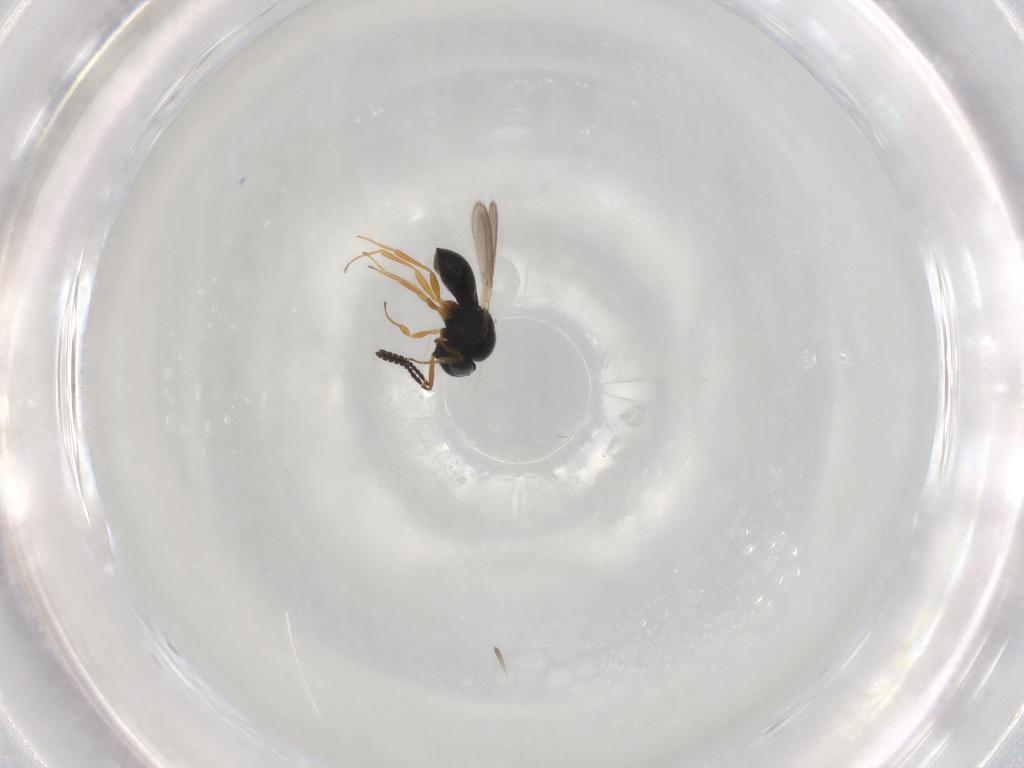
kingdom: Animalia
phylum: Arthropoda
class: Insecta
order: Hymenoptera
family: Scelionidae
